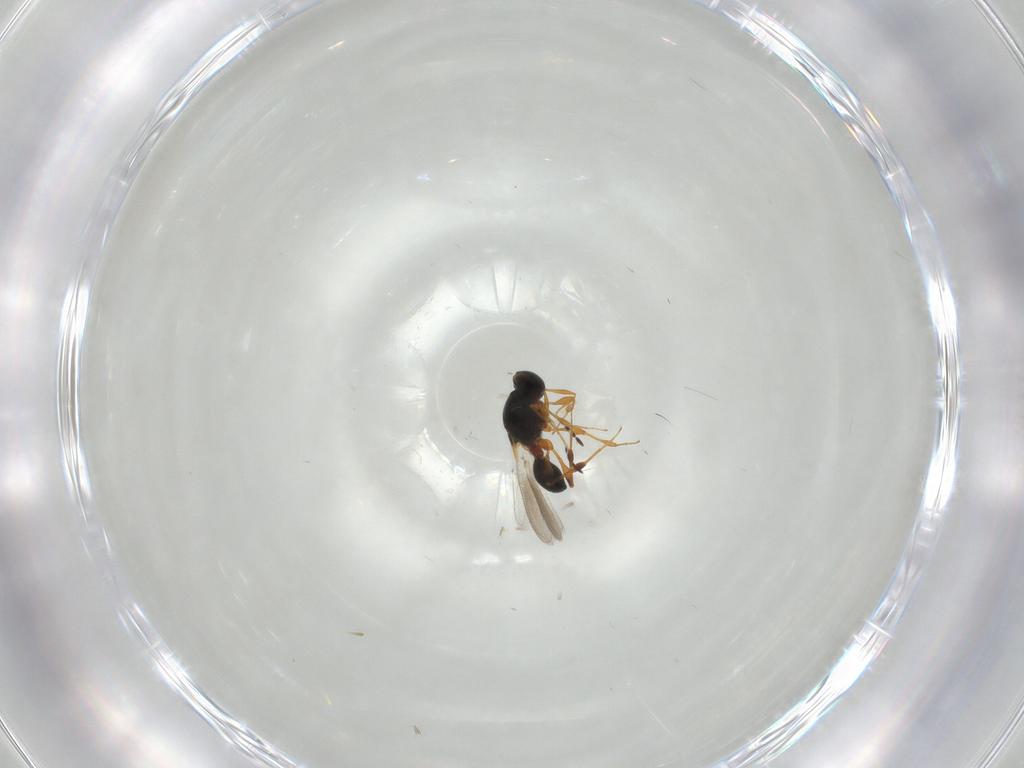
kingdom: Animalia
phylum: Arthropoda
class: Insecta
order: Hymenoptera
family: Platygastridae
